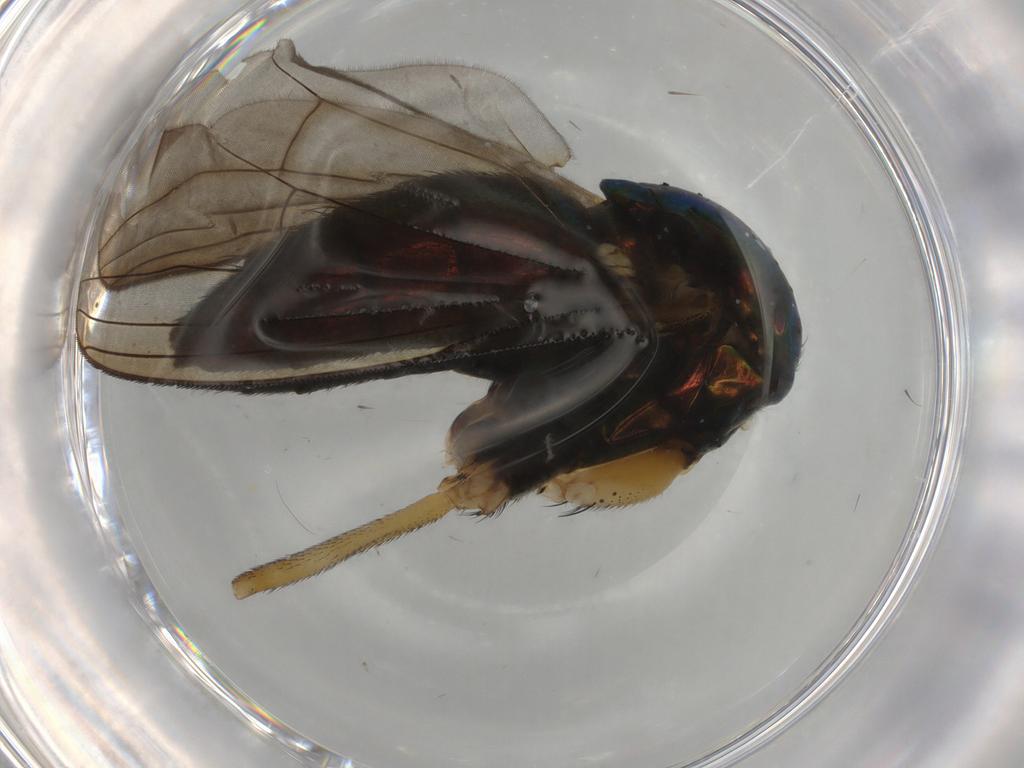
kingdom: Animalia
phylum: Arthropoda
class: Insecta
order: Diptera
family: Dolichopodidae
